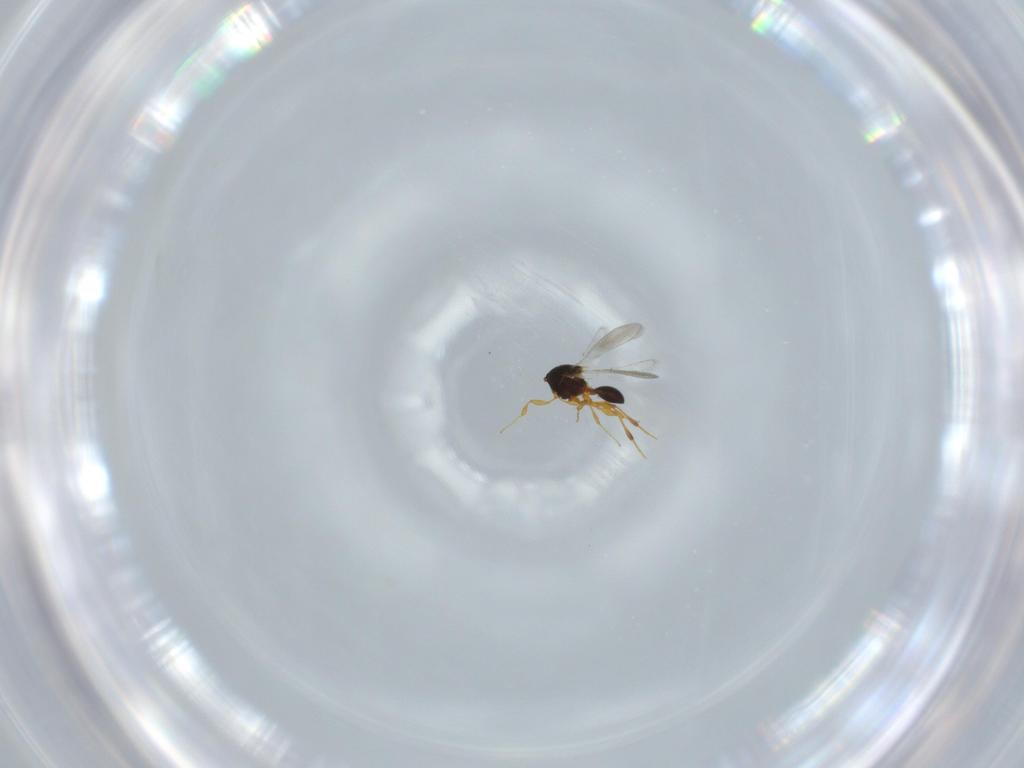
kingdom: Animalia
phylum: Arthropoda
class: Insecta
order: Hymenoptera
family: Platygastridae
